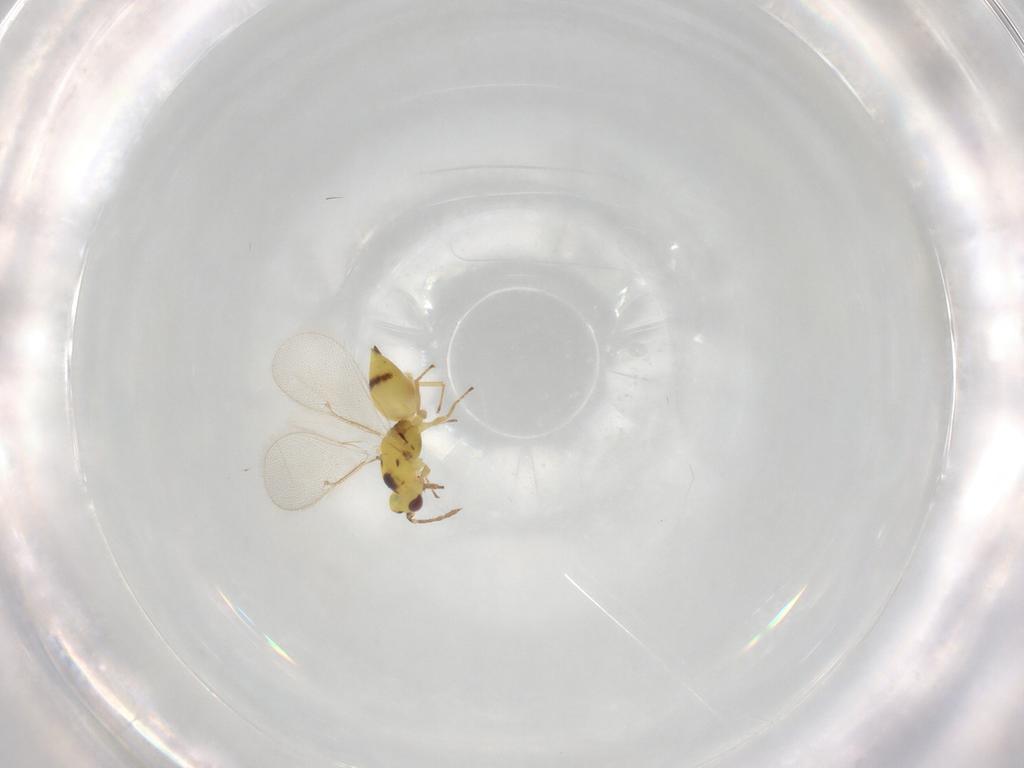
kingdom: Animalia
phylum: Arthropoda
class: Insecta
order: Hymenoptera
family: Eulophidae
